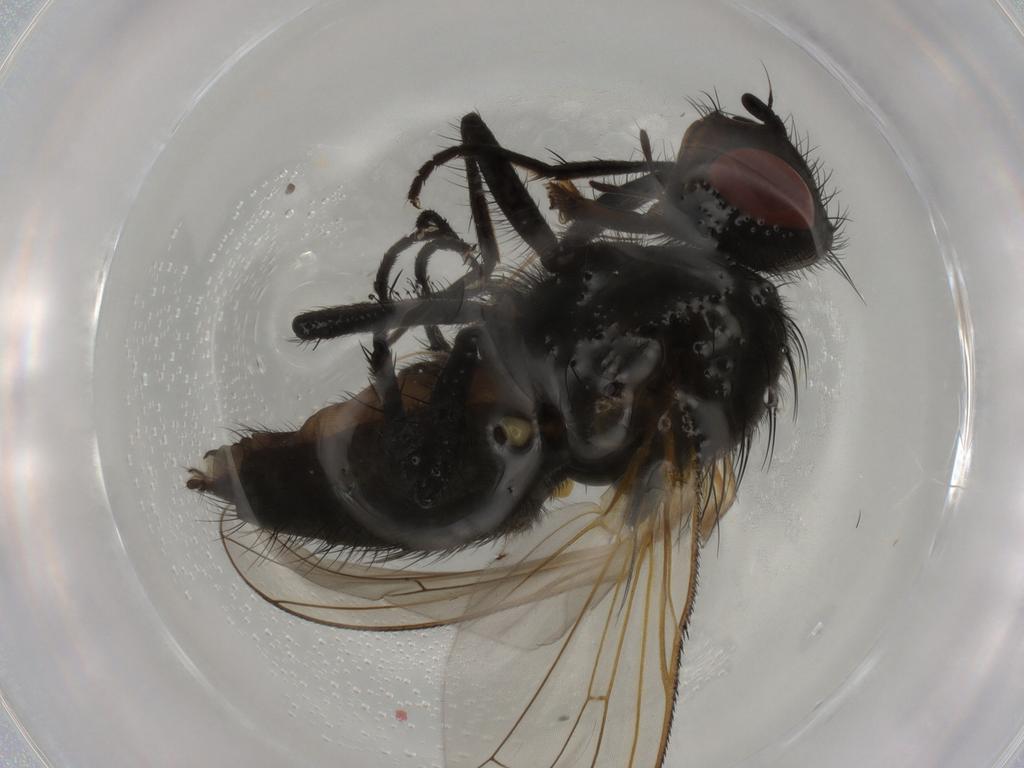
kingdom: Animalia
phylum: Arthropoda
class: Insecta
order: Diptera
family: Anthomyiidae
